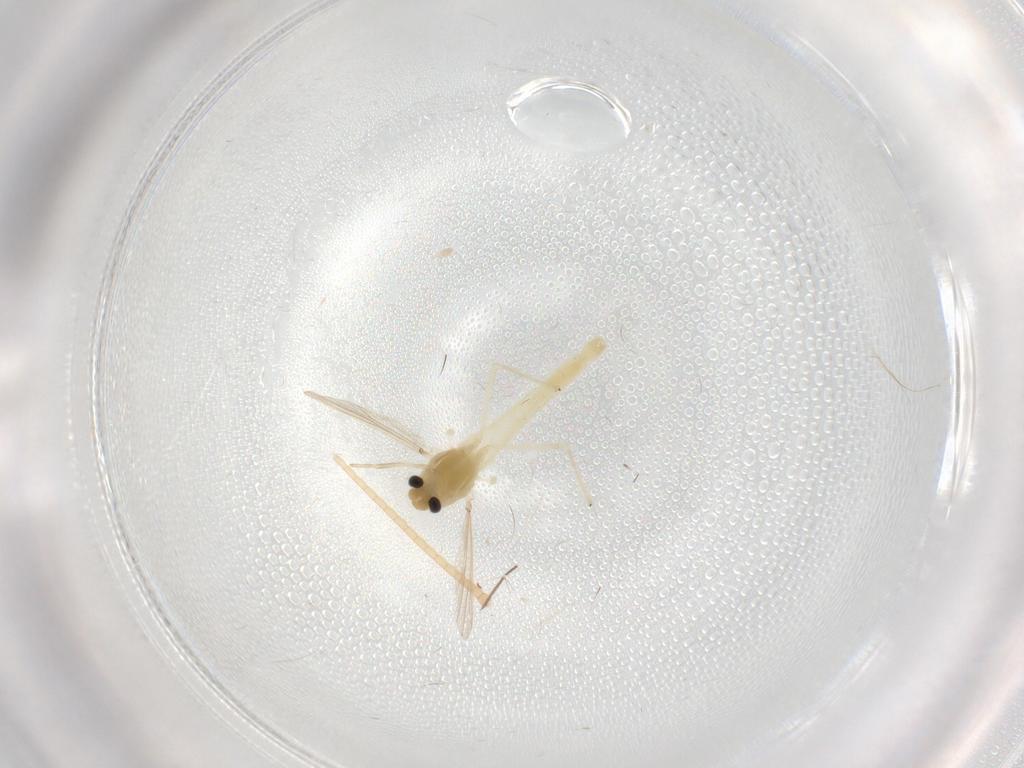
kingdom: Animalia
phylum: Arthropoda
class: Insecta
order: Diptera
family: Chironomidae
